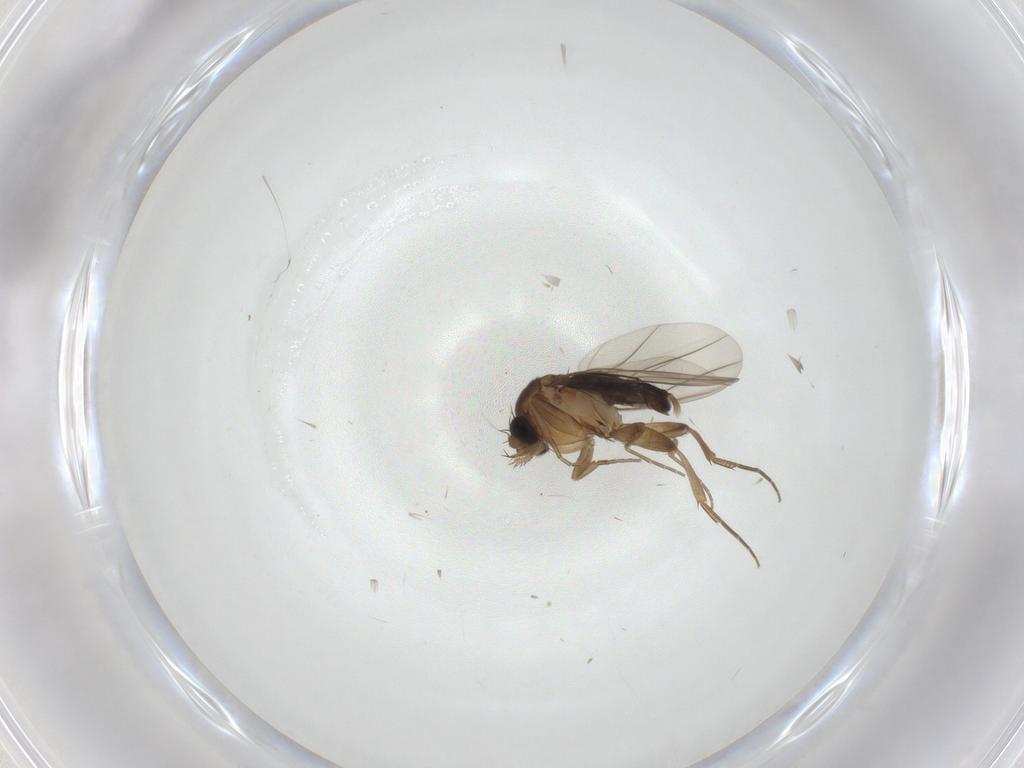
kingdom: Animalia
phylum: Arthropoda
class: Insecta
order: Diptera
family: Phoridae
